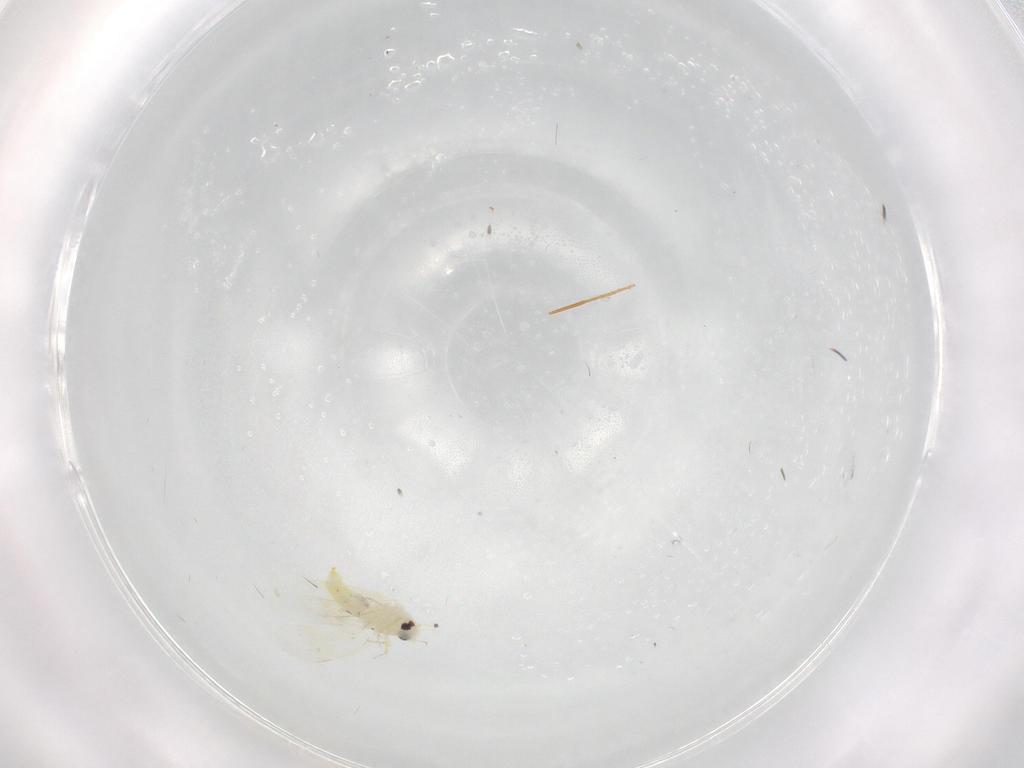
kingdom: Animalia
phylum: Arthropoda
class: Insecta
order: Diptera
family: Cecidomyiidae
